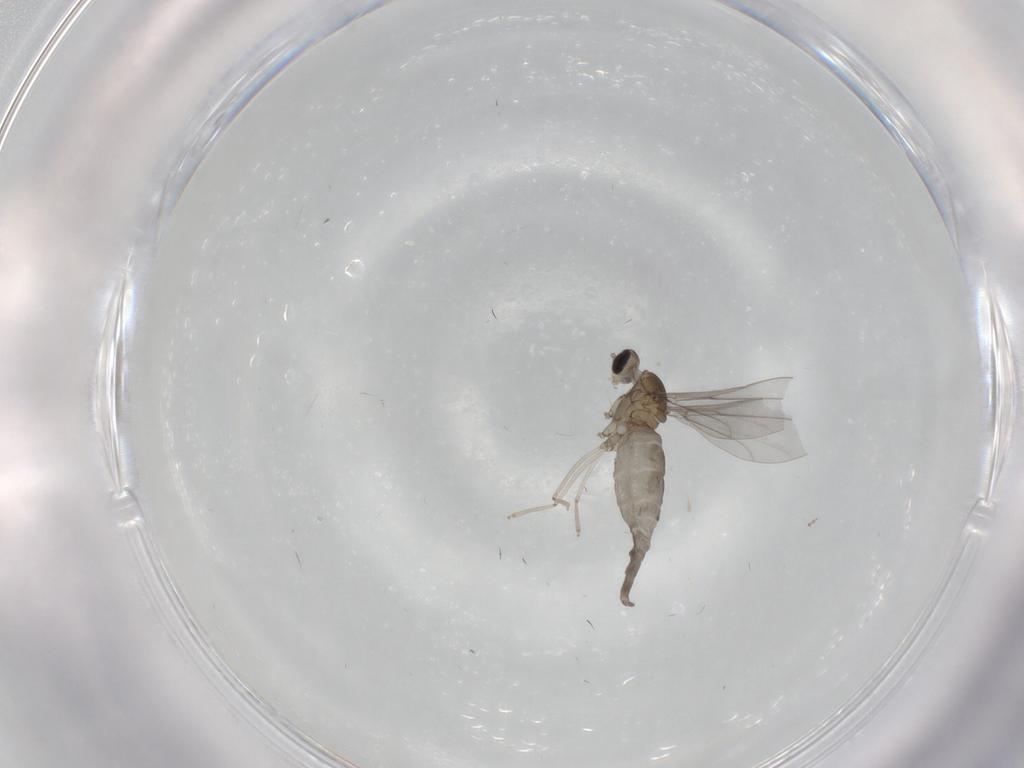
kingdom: Animalia
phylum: Arthropoda
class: Insecta
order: Diptera
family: Cecidomyiidae
